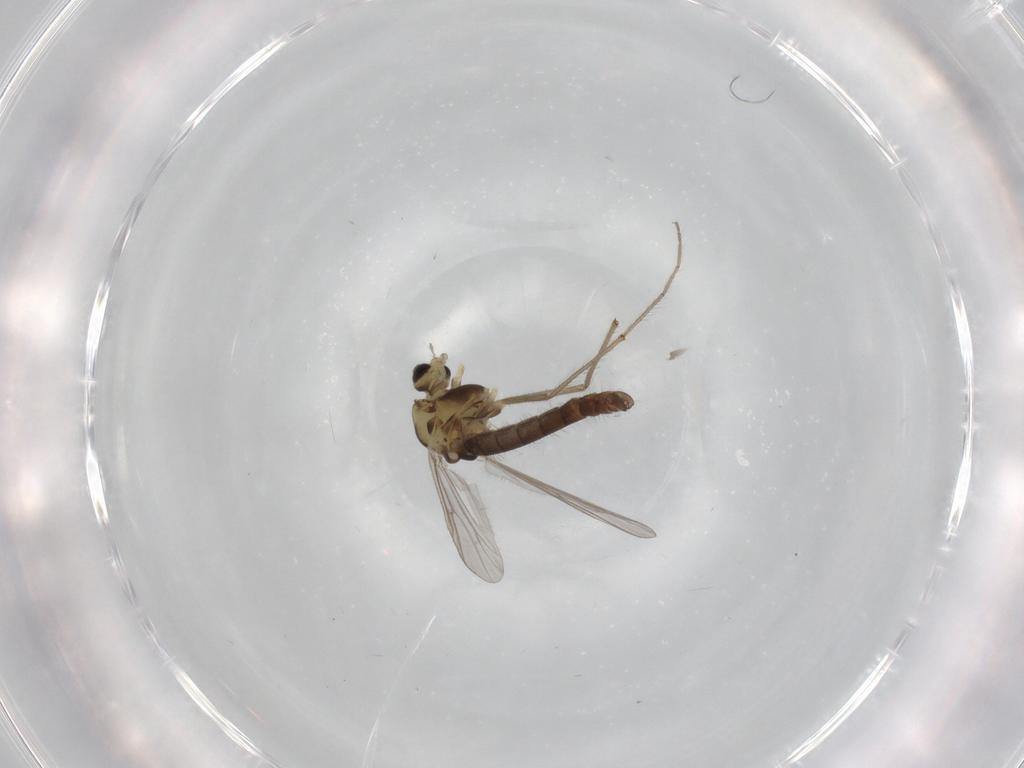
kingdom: Animalia
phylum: Arthropoda
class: Insecta
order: Diptera
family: Chironomidae
